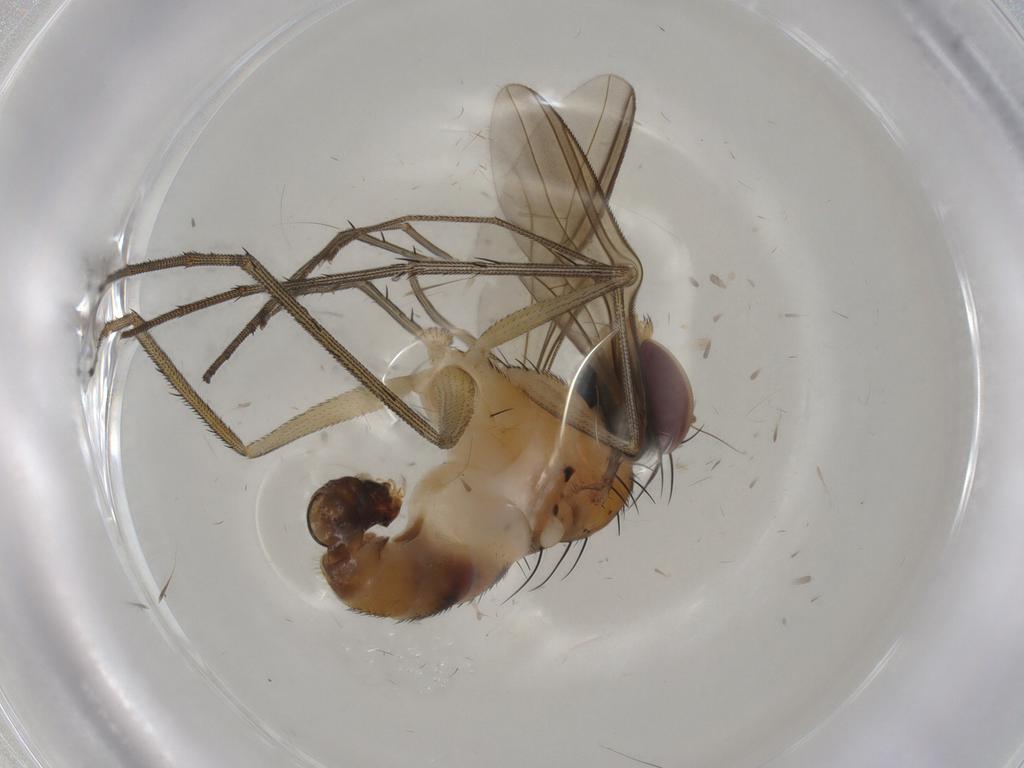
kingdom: Animalia
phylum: Arthropoda
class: Insecta
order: Diptera
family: Dolichopodidae
